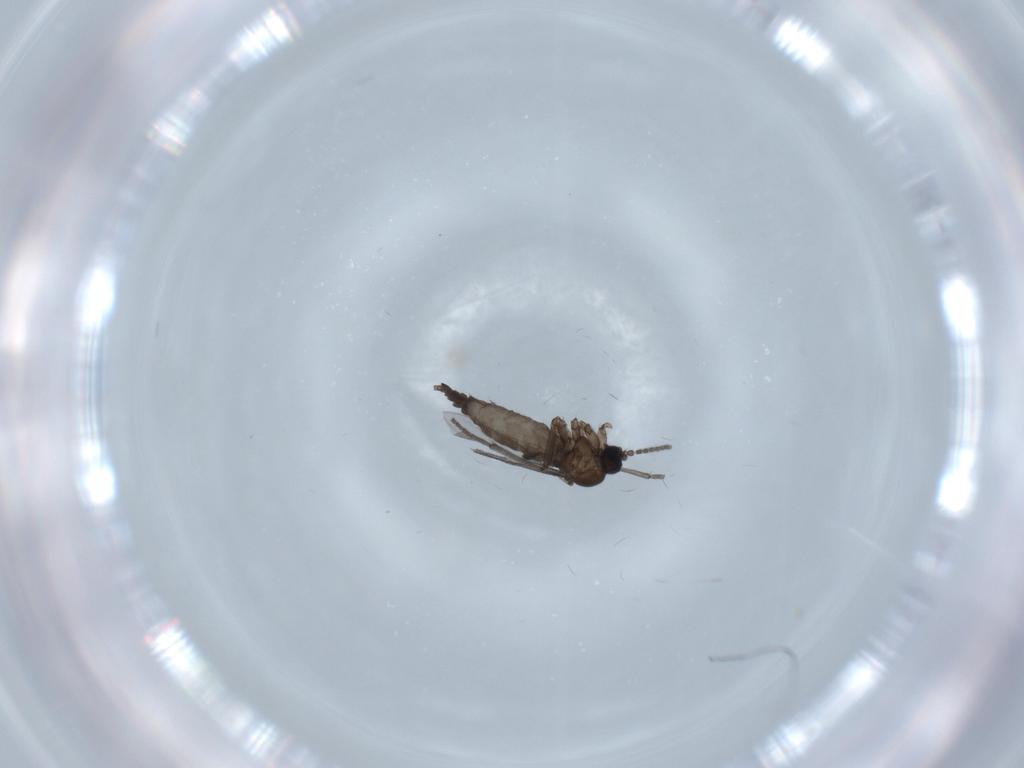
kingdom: Animalia
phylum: Arthropoda
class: Insecta
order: Diptera
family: Sciaridae
